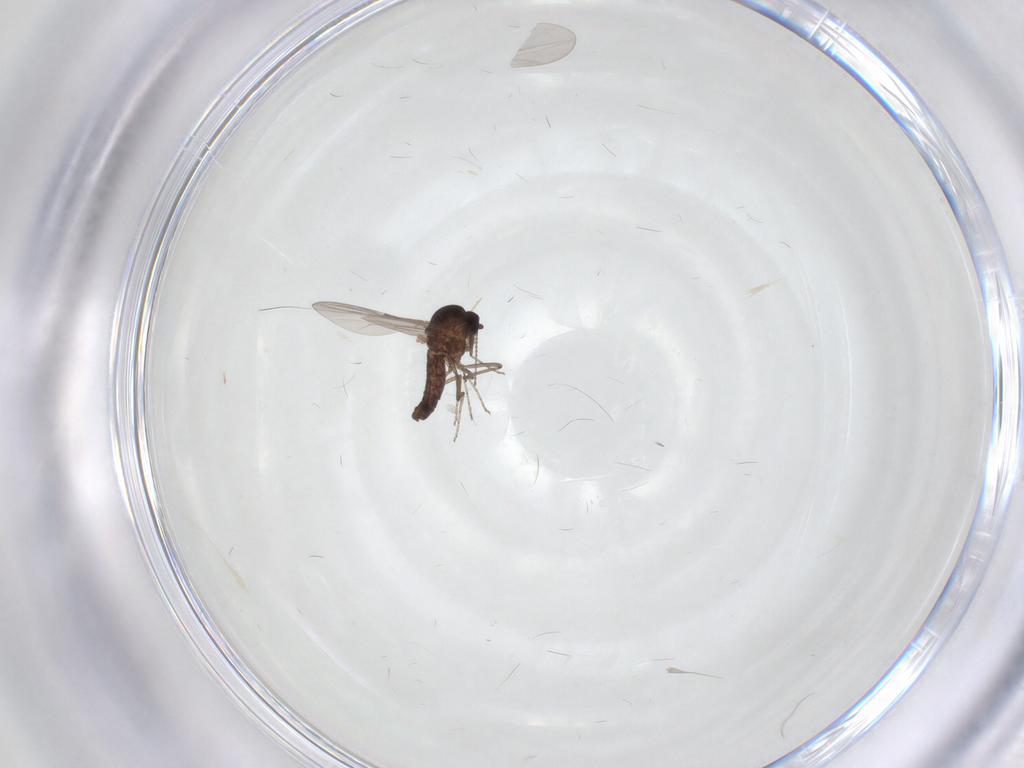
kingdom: Animalia
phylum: Arthropoda
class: Insecta
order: Diptera
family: Ceratopogonidae
